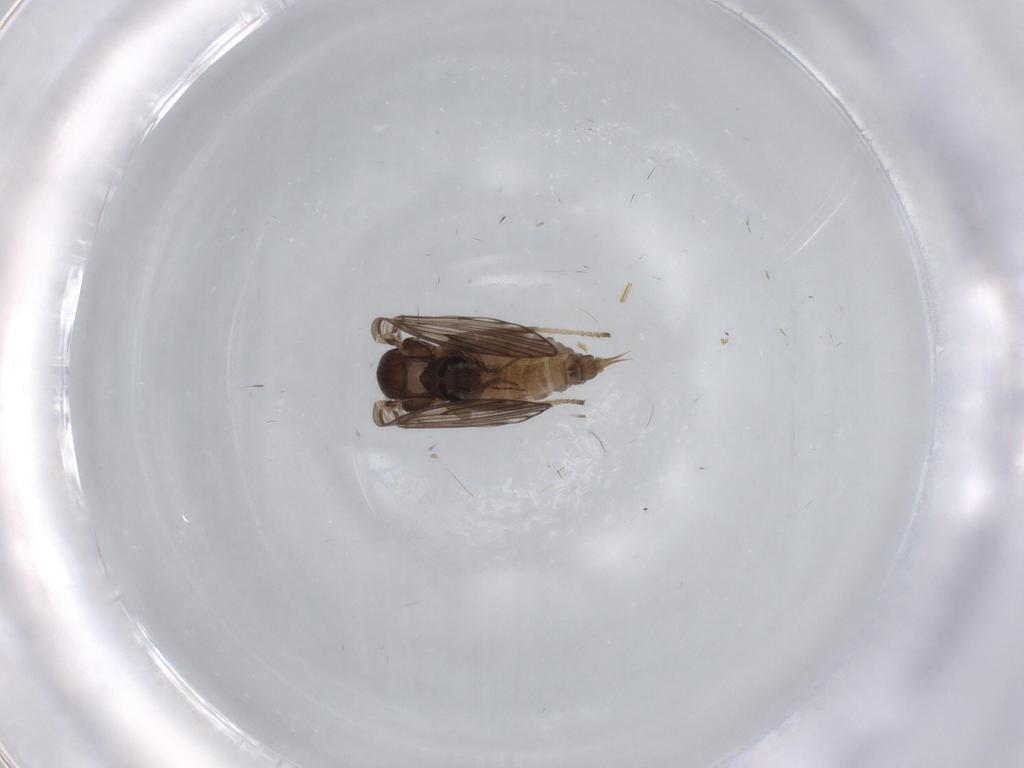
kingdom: Animalia
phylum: Arthropoda
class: Insecta
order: Diptera
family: Psychodidae
